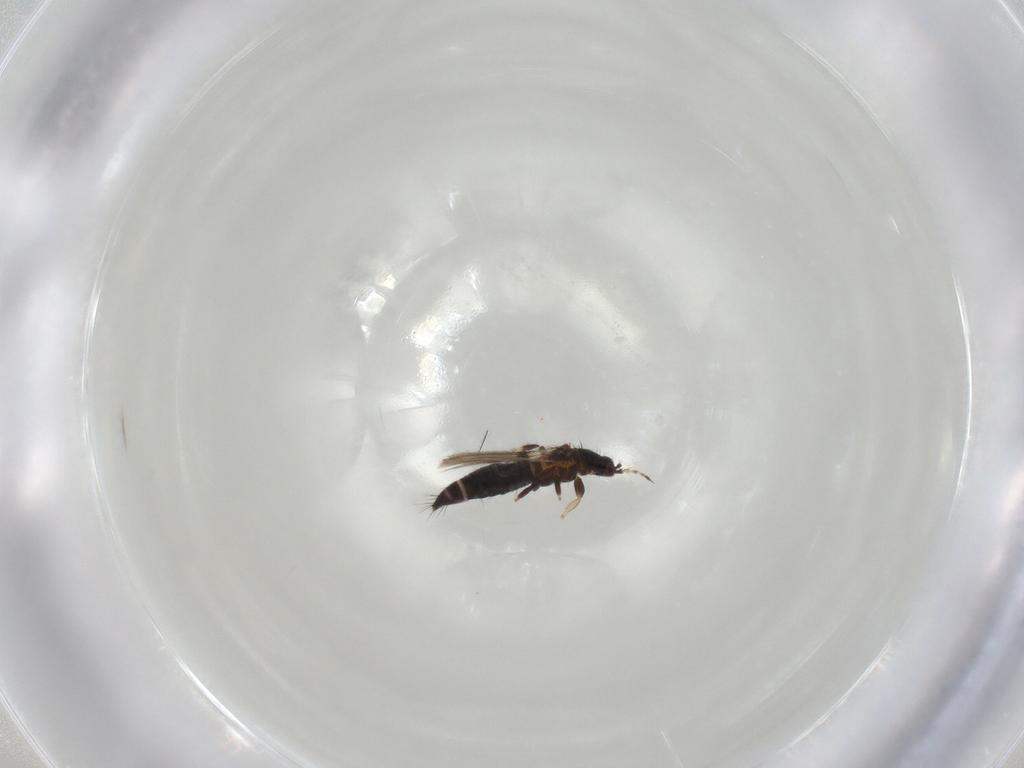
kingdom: Animalia
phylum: Arthropoda
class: Insecta
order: Thysanoptera
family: Thripidae
